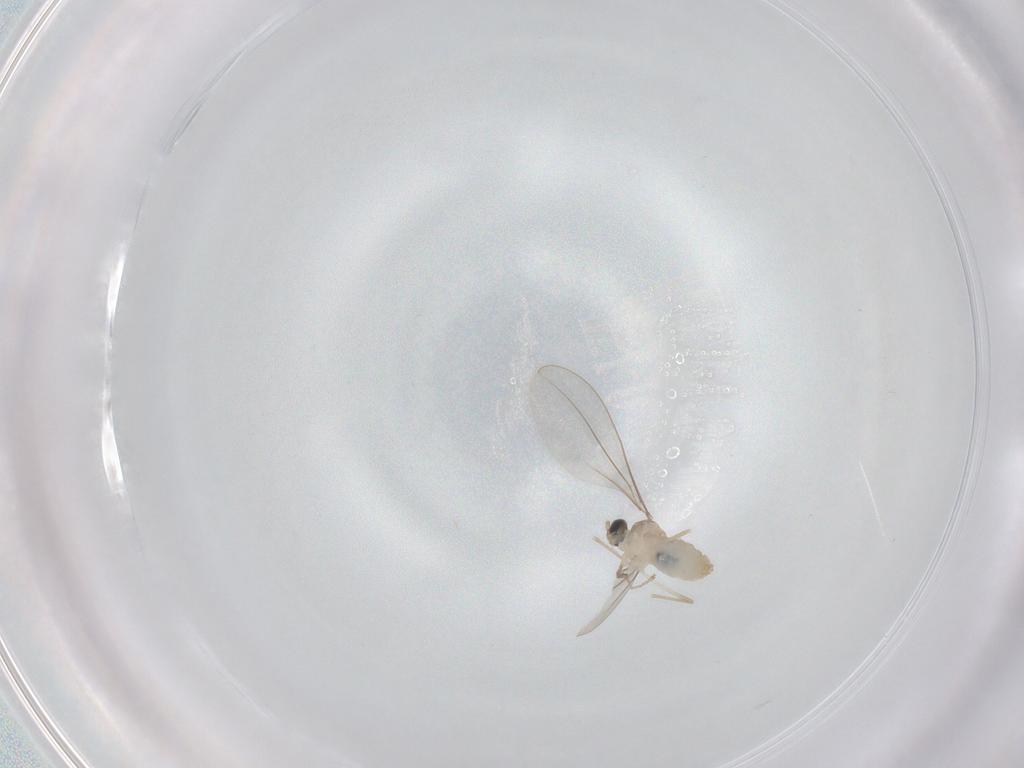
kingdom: Animalia
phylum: Arthropoda
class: Insecta
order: Diptera
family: Cecidomyiidae
